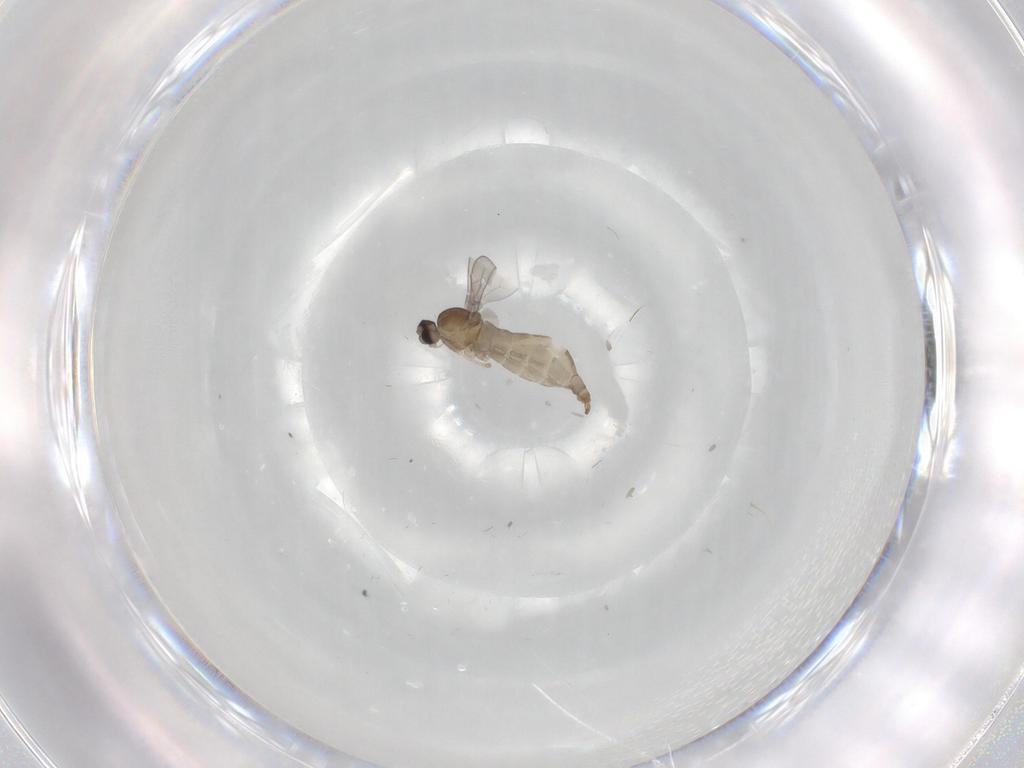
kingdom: Animalia
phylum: Arthropoda
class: Insecta
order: Diptera
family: Cecidomyiidae
